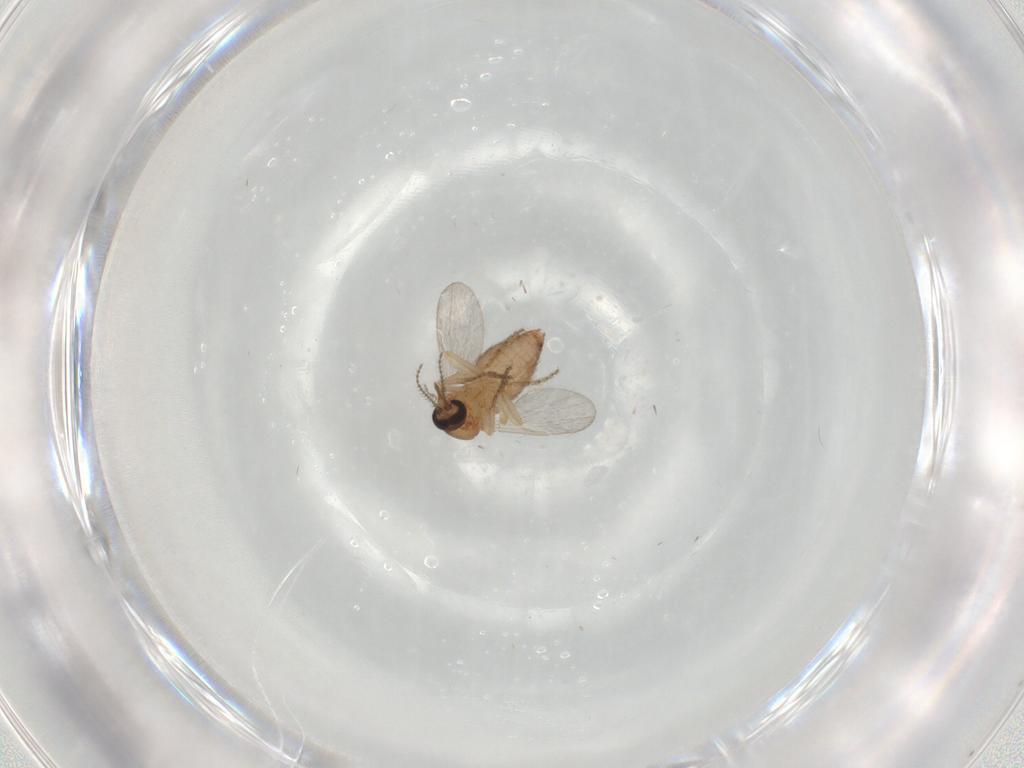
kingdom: Animalia
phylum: Arthropoda
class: Insecta
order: Diptera
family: Ceratopogonidae
